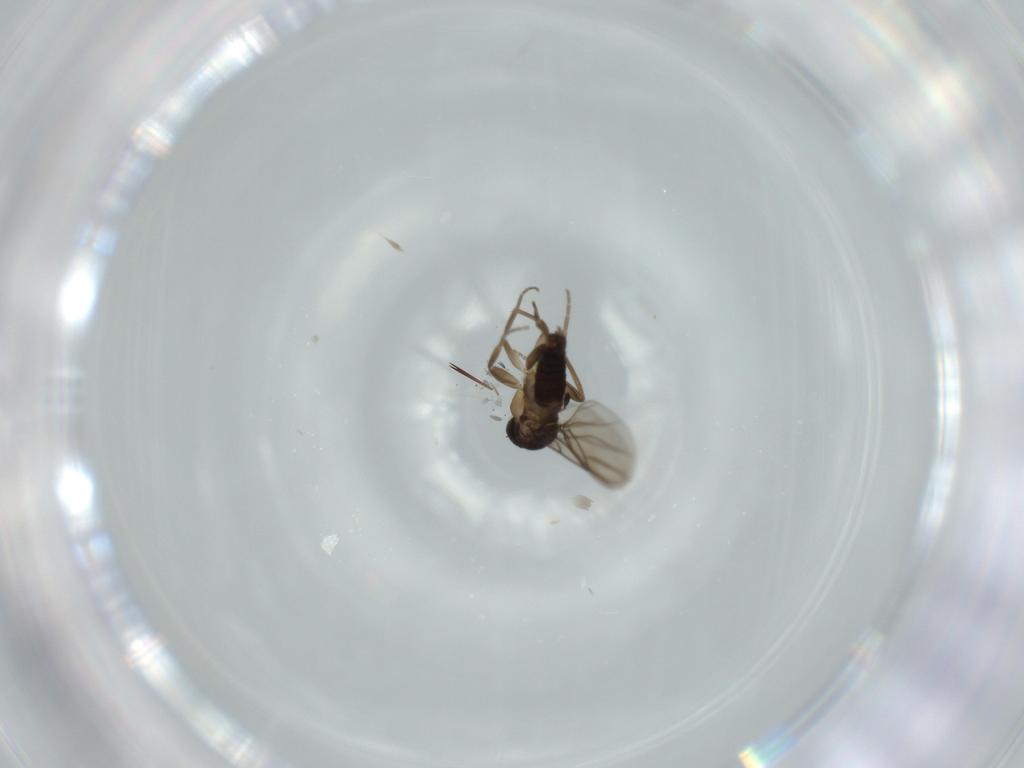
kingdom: Animalia
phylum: Arthropoda
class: Insecta
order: Diptera
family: Phoridae
